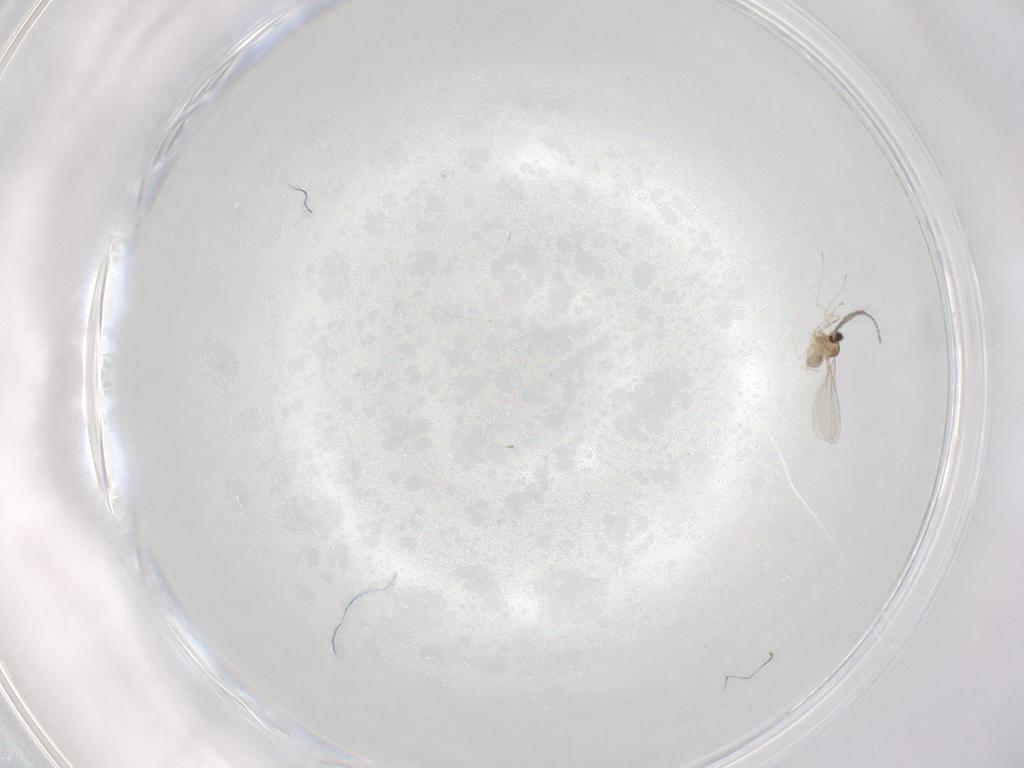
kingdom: Animalia
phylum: Arthropoda
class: Insecta
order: Diptera
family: Cecidomyiidae
